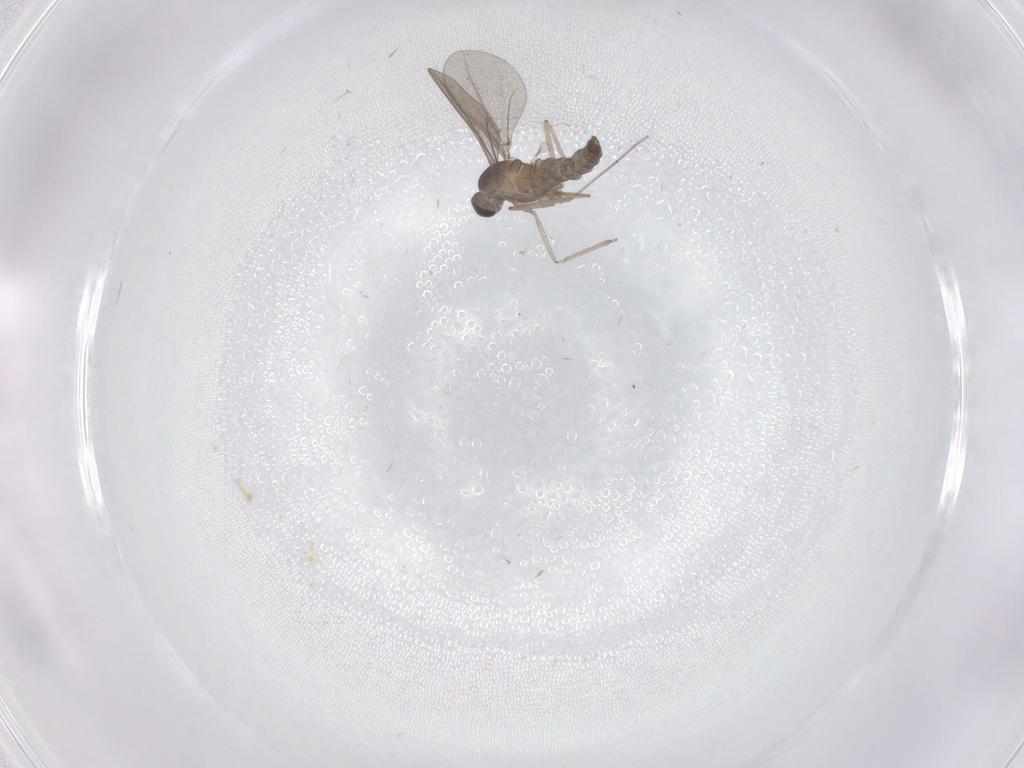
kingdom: Animalia
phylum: Arthropoda
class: Insecta
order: Diptera
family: Cecidomyiidae
